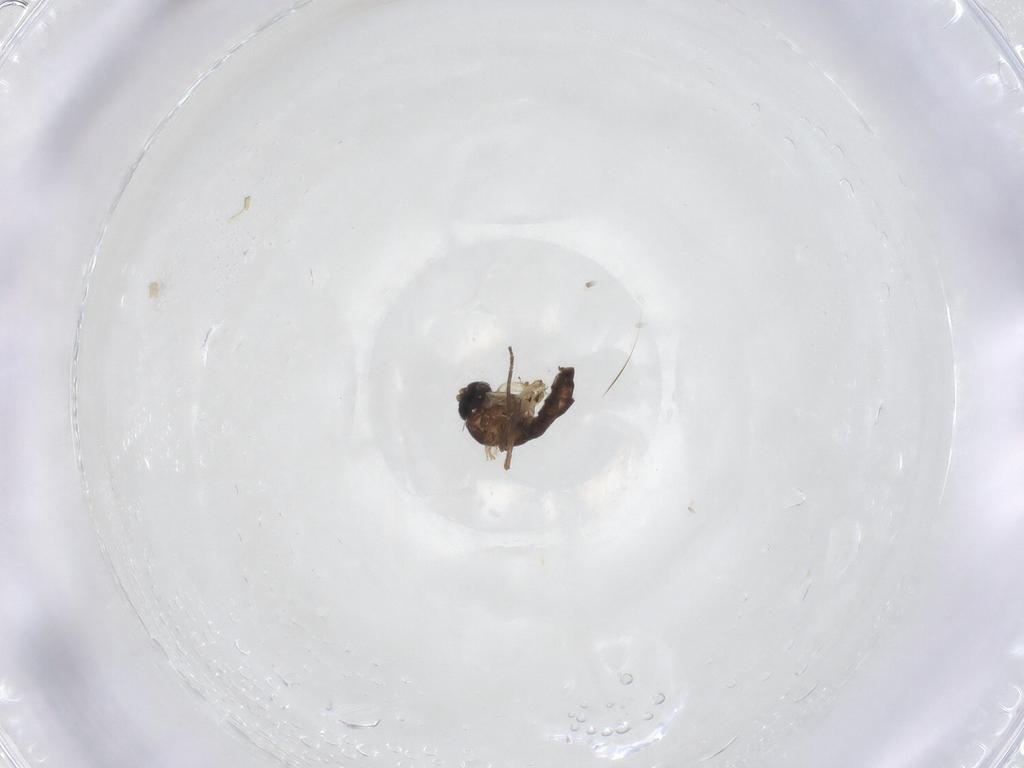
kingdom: Animalia
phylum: Arthropoda
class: Insecta
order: Diptera
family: Sciaridae
